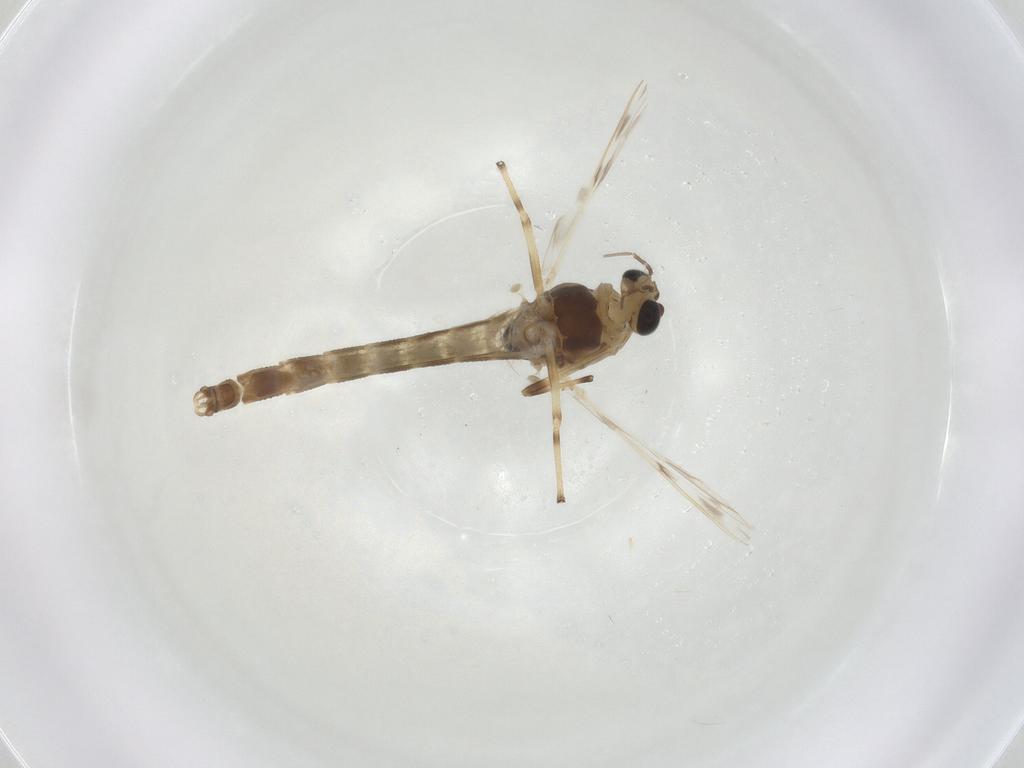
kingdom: Animalia
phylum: Arthropoda
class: Insecta
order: Diptera
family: Chironomidae
